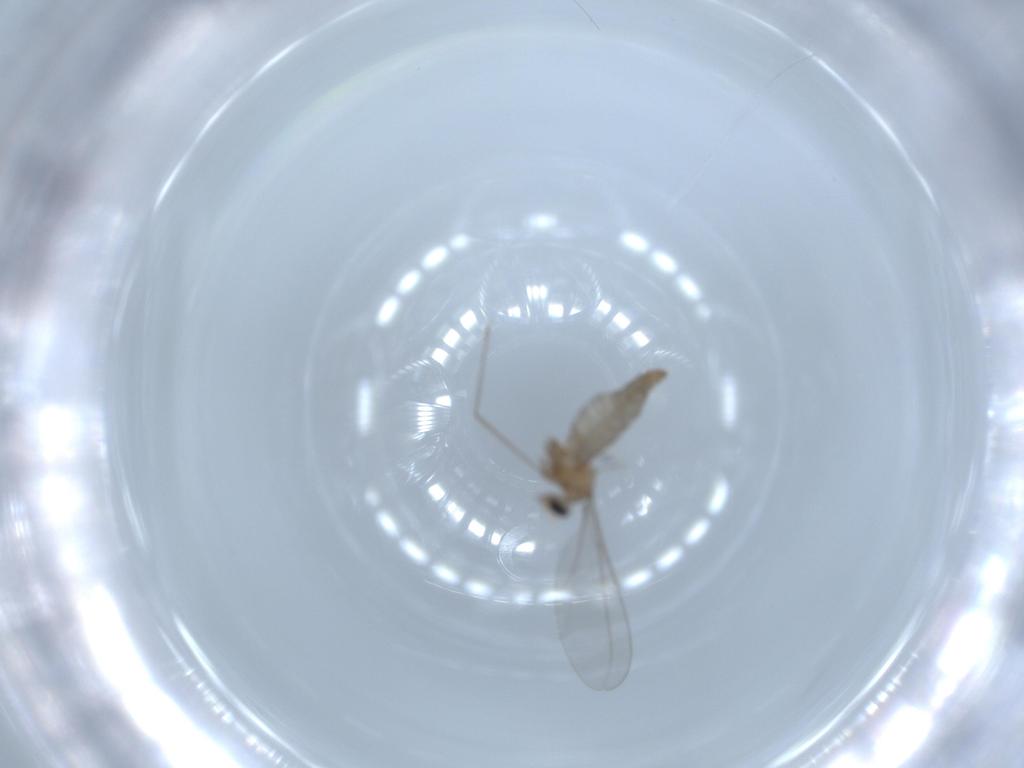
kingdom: Animalia
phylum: Arthropoda
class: Insecta
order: Diptera
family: Cecidomyiidae
